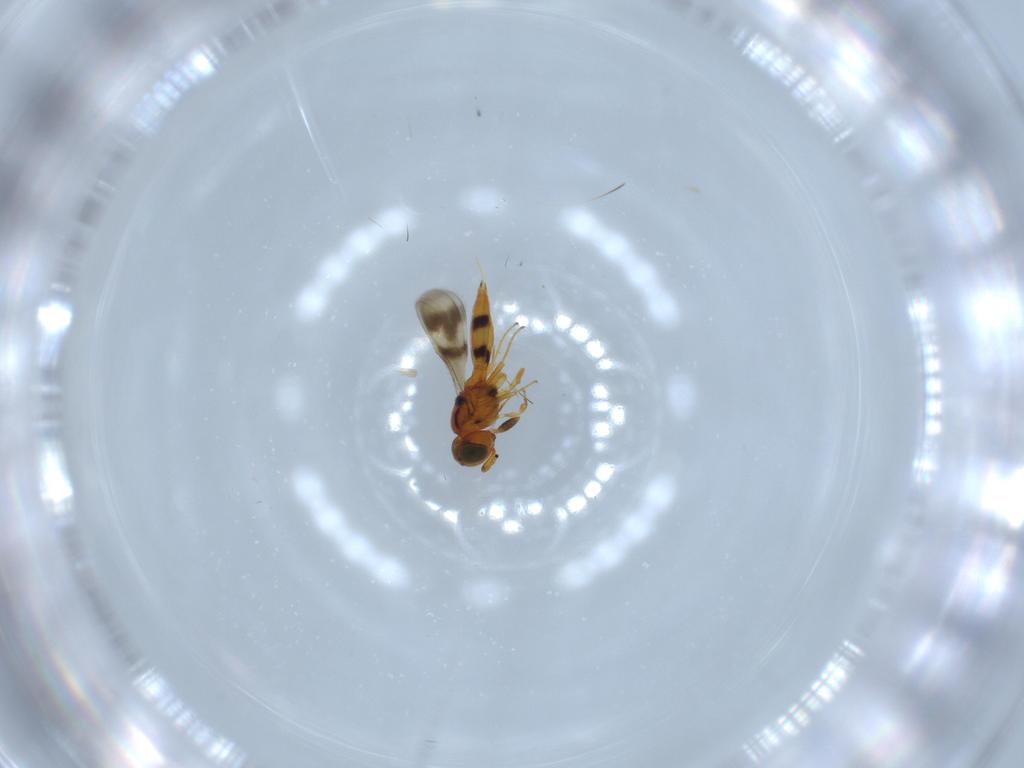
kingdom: Animalia
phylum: Arthropoda
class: Insecta
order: Hymenoptera
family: Scelionidae
